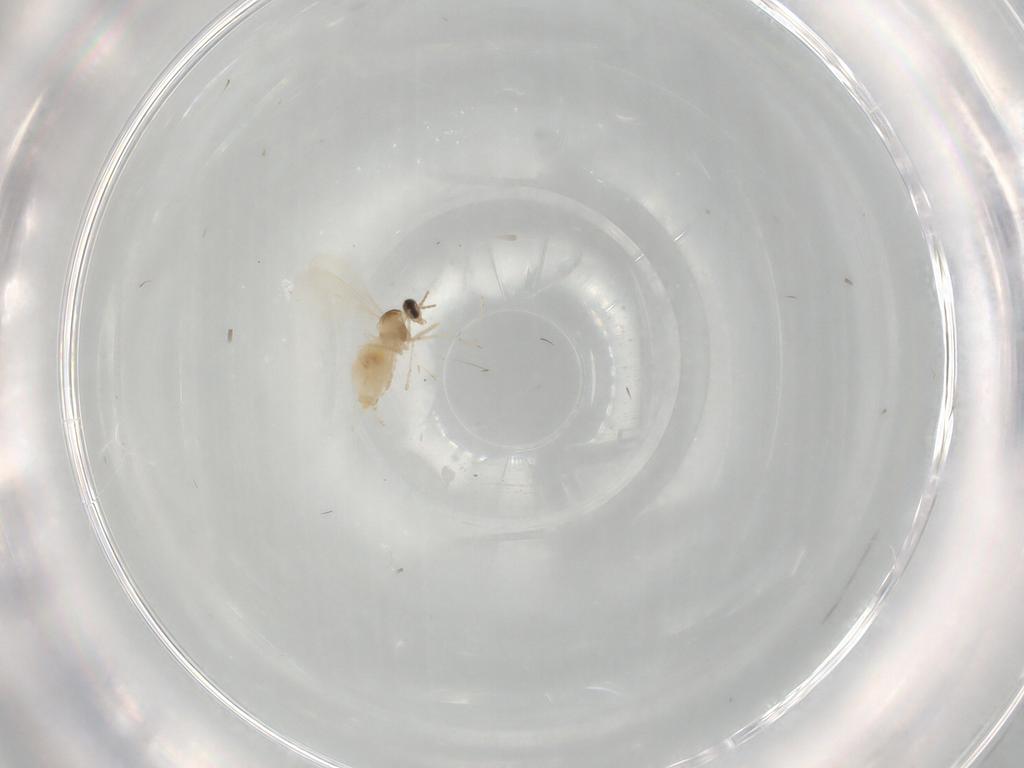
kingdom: Animalia
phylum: Arthropoda
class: Insecta
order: Diptera
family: Cecidomyiidae
